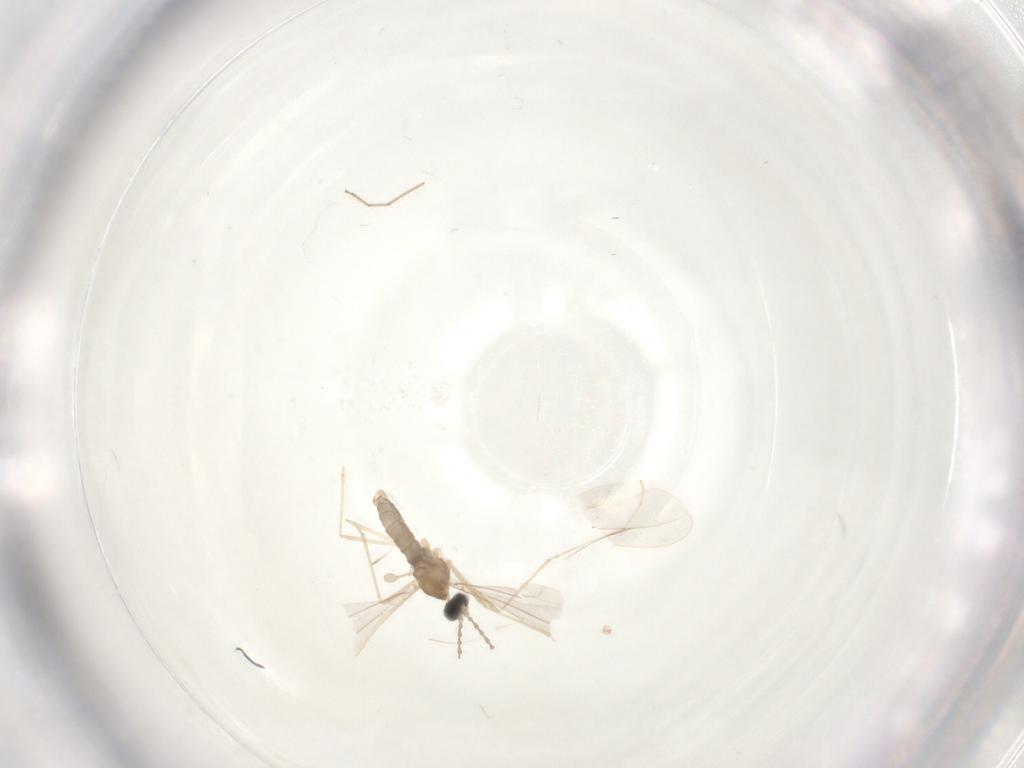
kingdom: Animalia
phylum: Arthropoda
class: Insecta
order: Diptera
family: Cecidomyiidae
